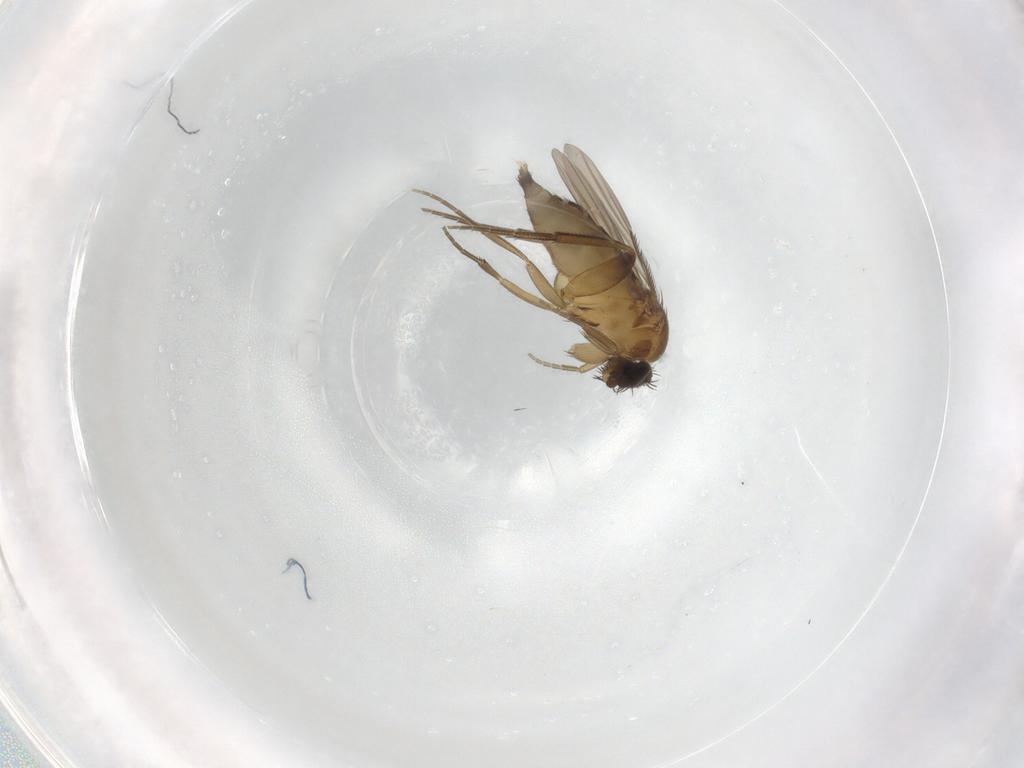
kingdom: Animalia
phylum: Arthropoda
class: Insecta
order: Diptera
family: Phoridae
